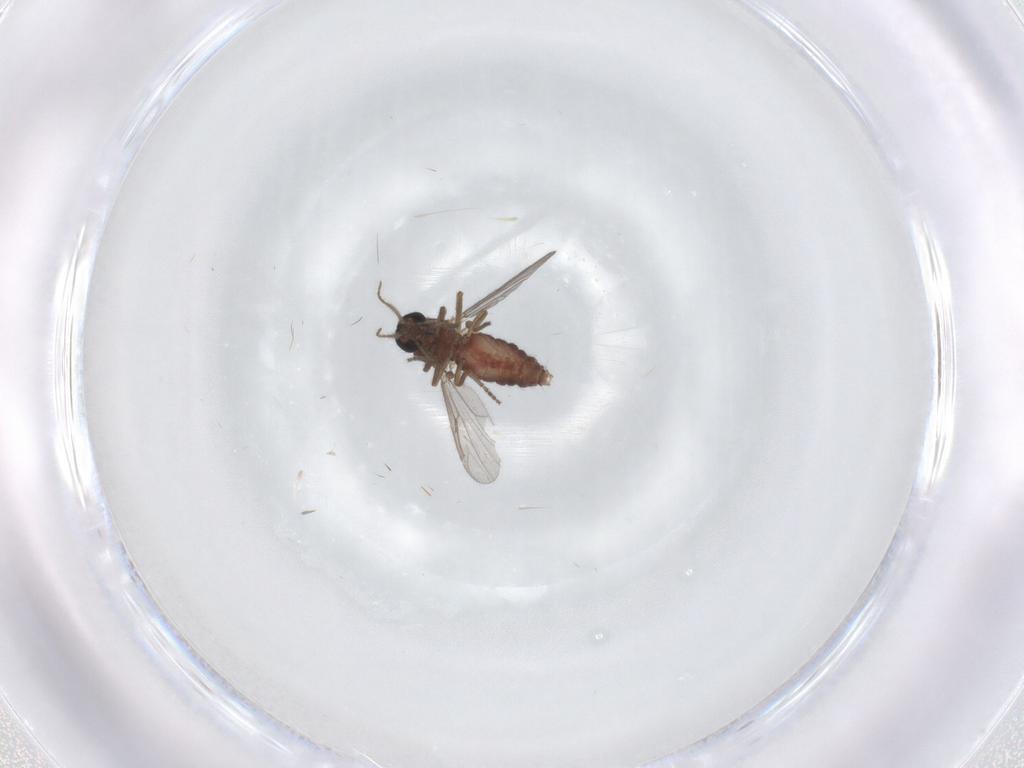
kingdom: Animalia
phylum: Arthropoda
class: Insecta
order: Diptera
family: Ceratopogonidae
